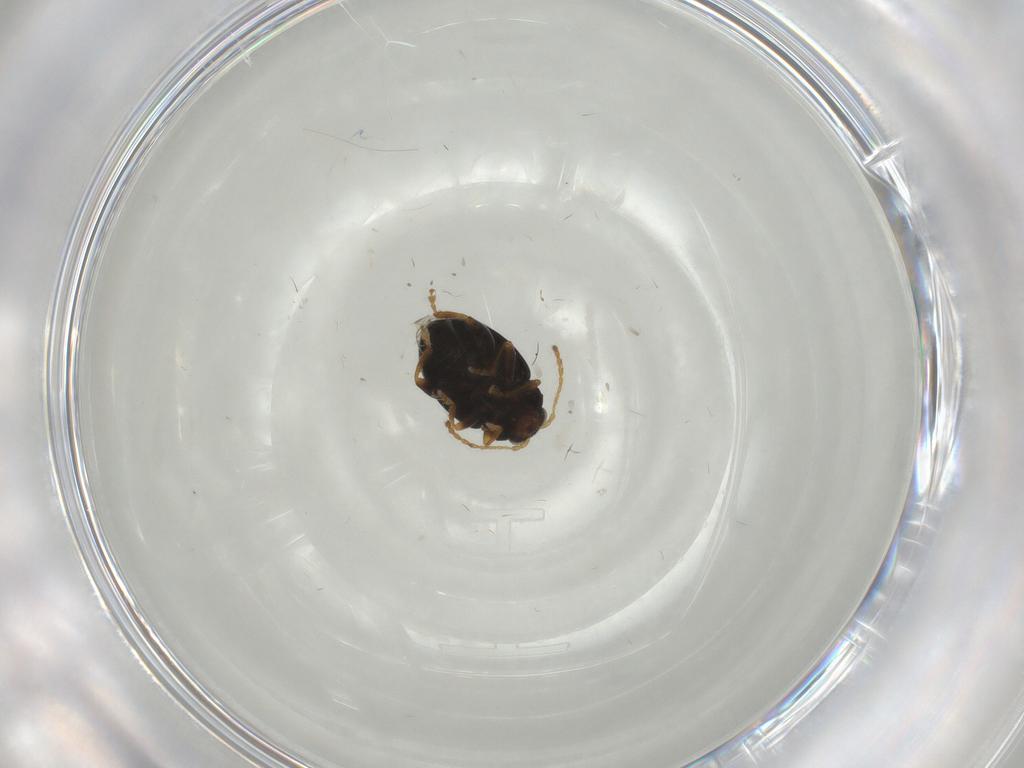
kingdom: Animalia
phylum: Arthropoda
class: Insecta
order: Coleoptera
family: Chrysomelidae
